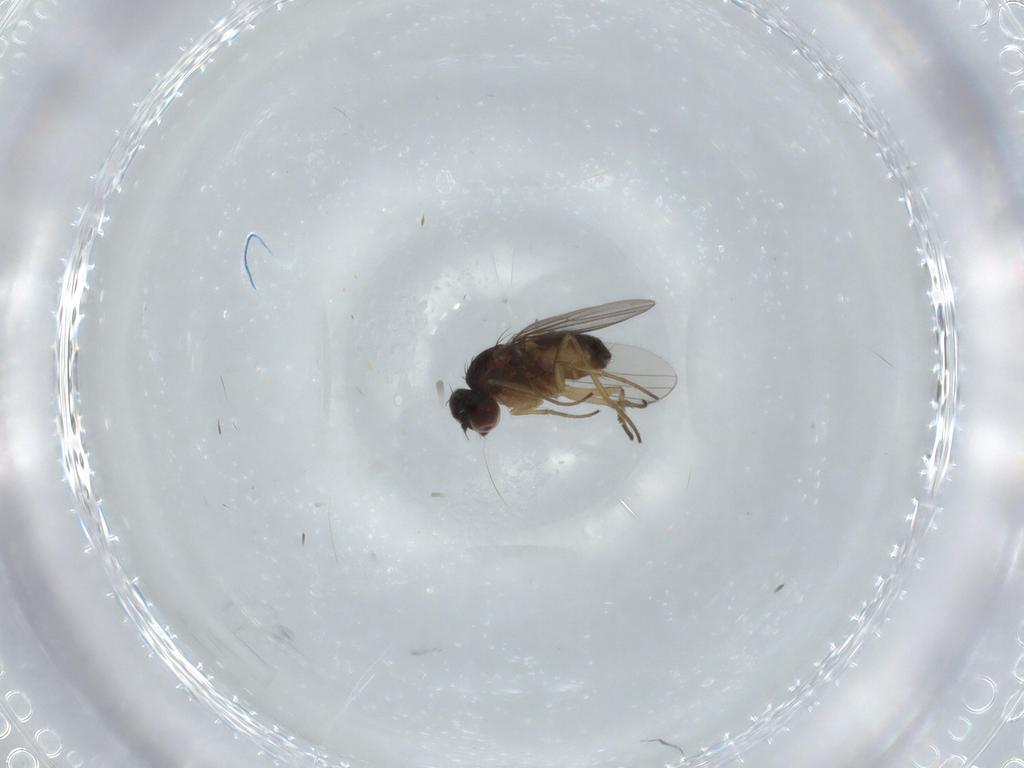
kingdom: Animalia
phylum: Arthropoda
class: Insecta
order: Diptera
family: Dolichopodidae
